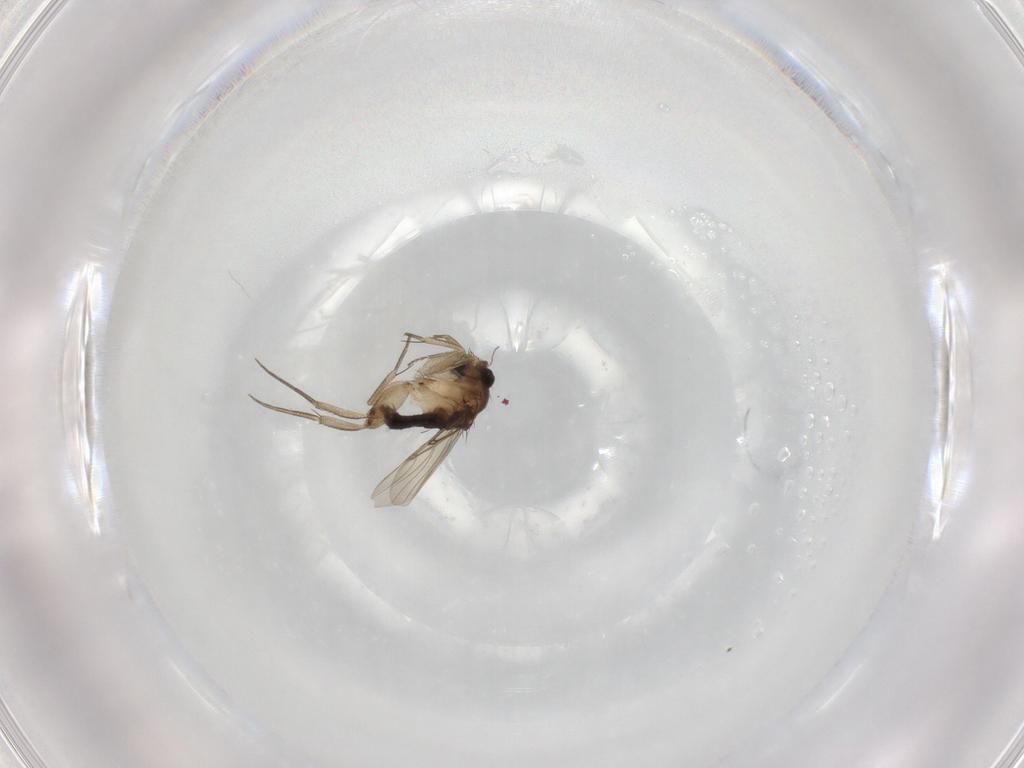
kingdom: Animalia
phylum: Arthropoda
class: Insecta
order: Diptera
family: Phoridae
